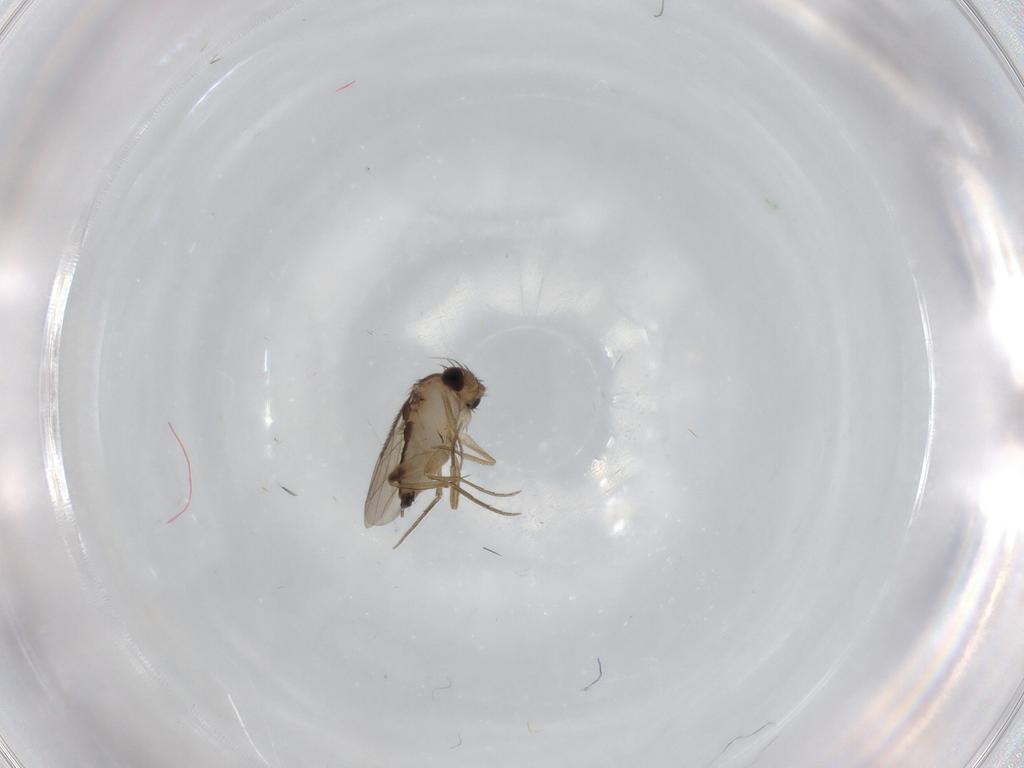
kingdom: Animalia
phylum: Arthropoda
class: Insecta
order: Diptera
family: Phoridae
